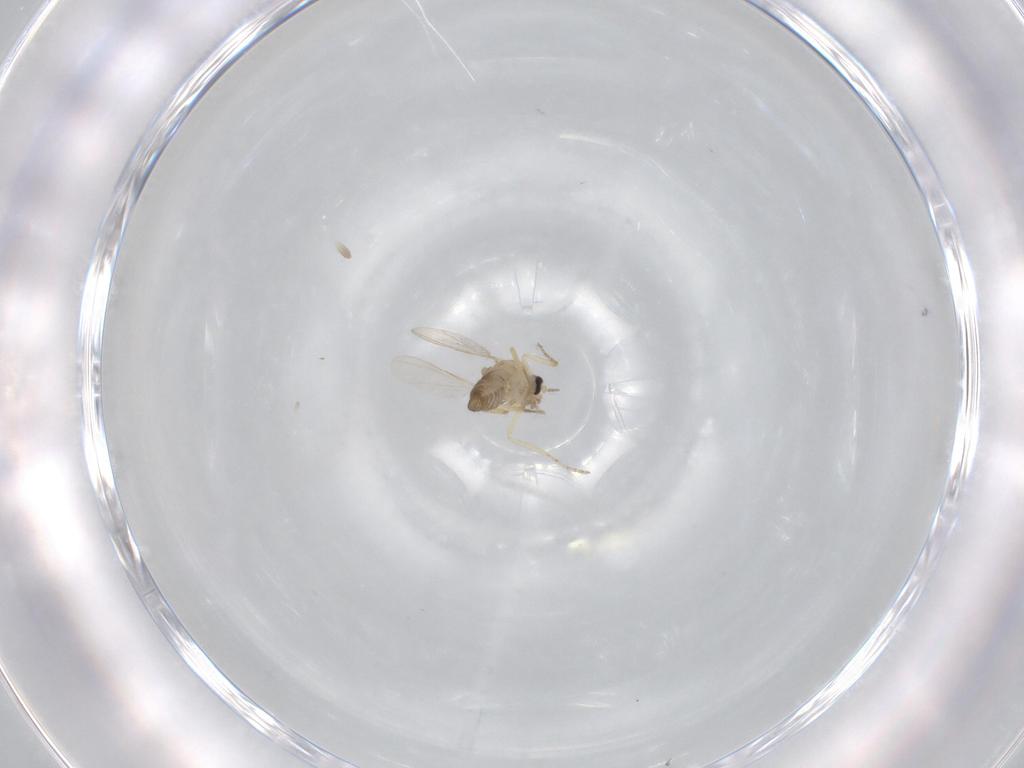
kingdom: Animalia
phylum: Arthropoda
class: Insecta
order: Diptera
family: Ceratopogonidae
